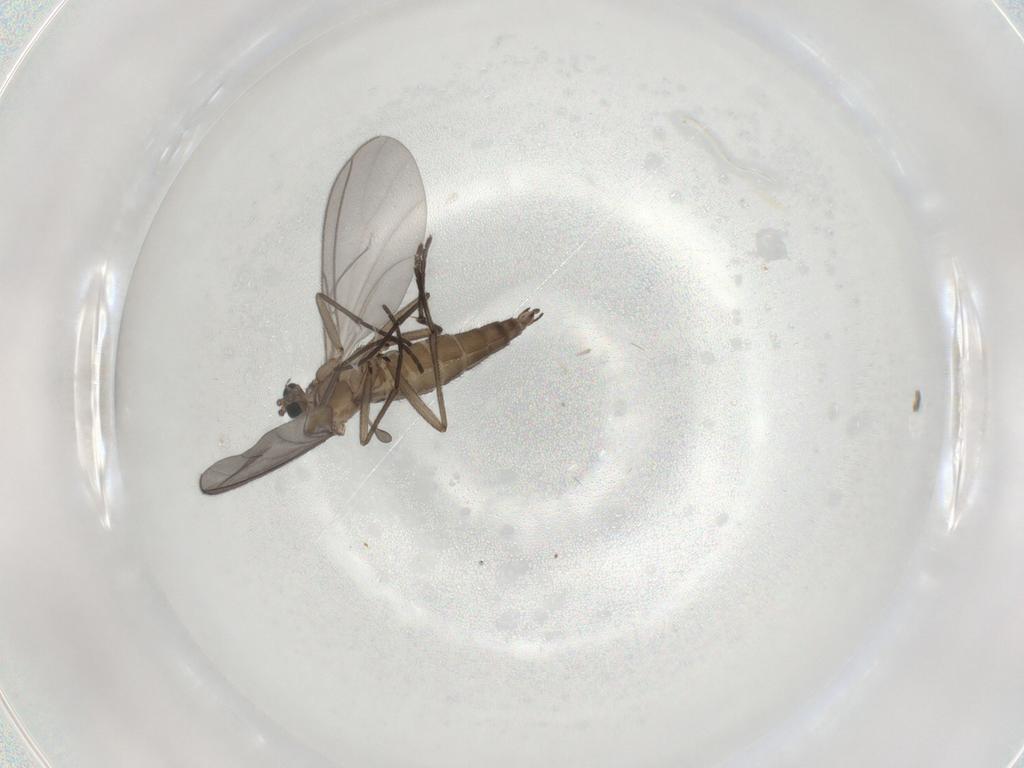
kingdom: Animalia
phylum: Arthropoda
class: Insecta
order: Diptera
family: Sciaridae
